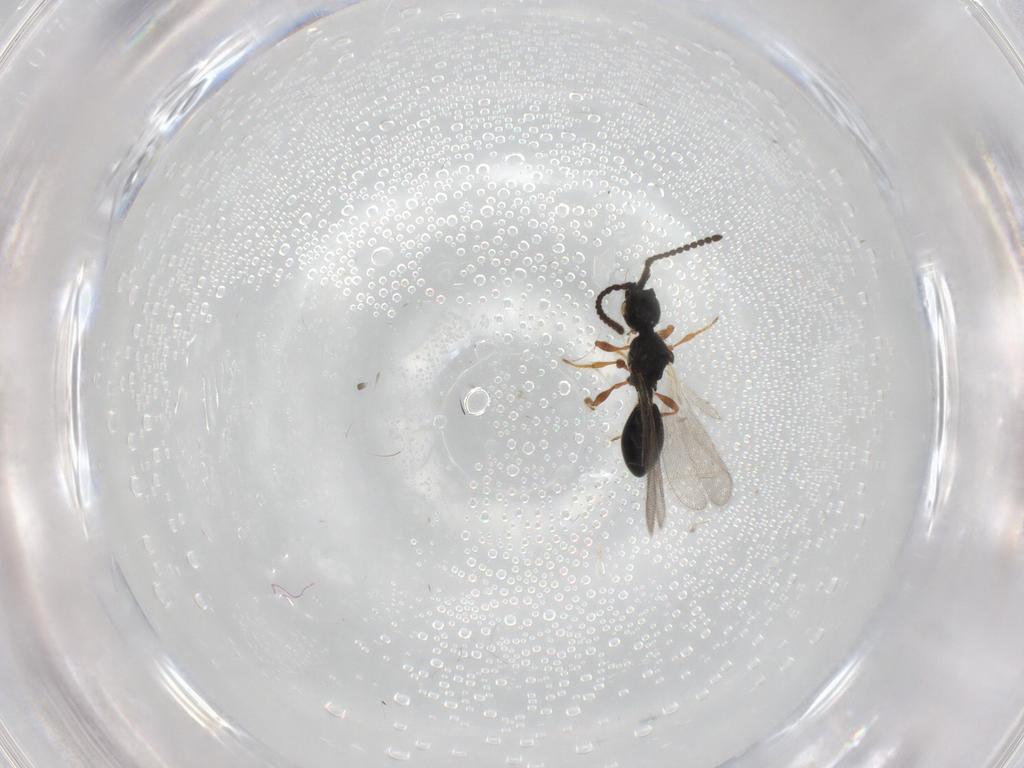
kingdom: Animalia
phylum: Arthropoda
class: Insecta
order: Hymenoptera
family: Diapriidae
